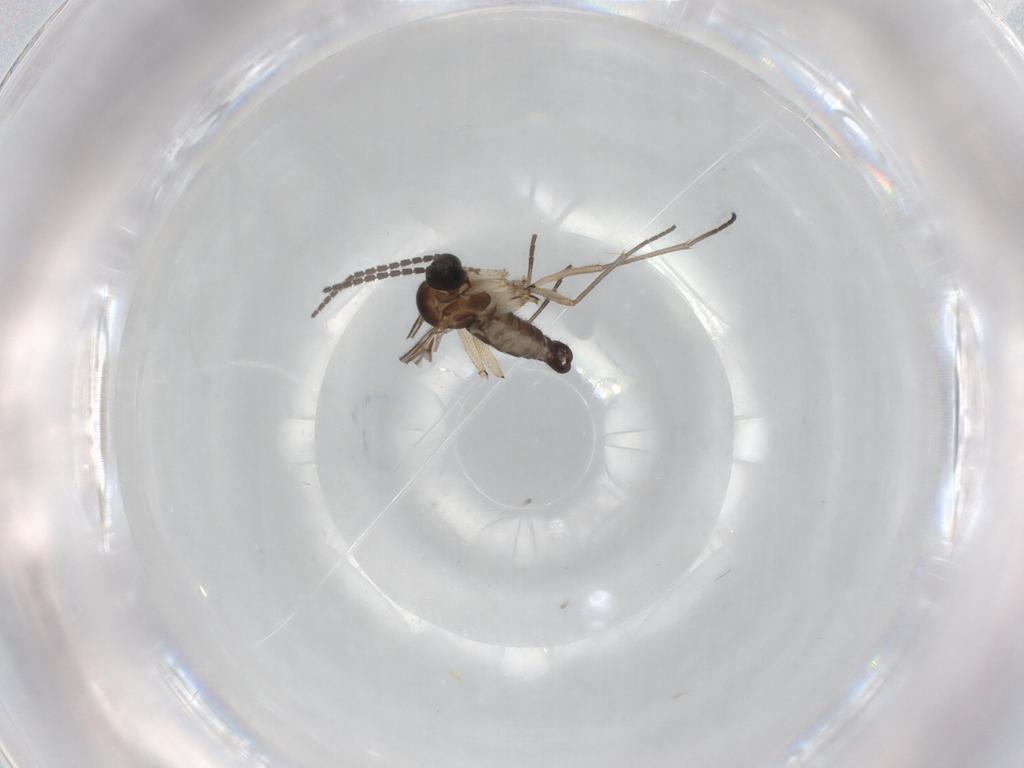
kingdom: Animalia
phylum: Arthropoda
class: Insecta
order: Diptera
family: Sciaridae
